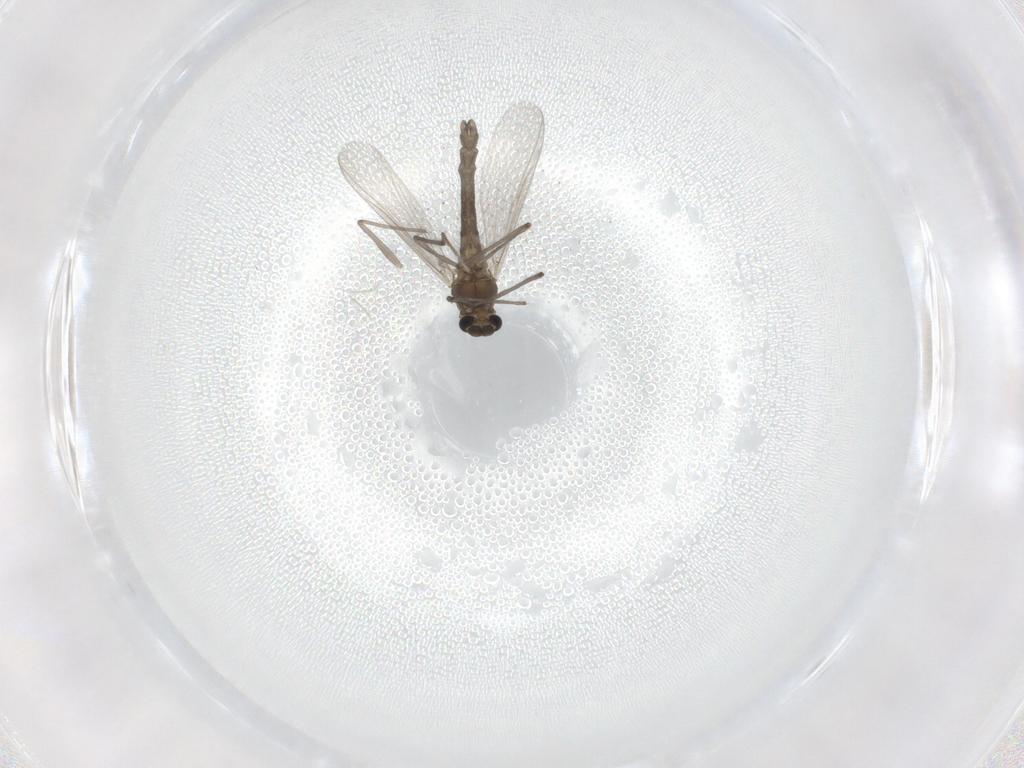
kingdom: Animalia
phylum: Arthropoda
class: Insecta
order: Diptera
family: Chironomidae
